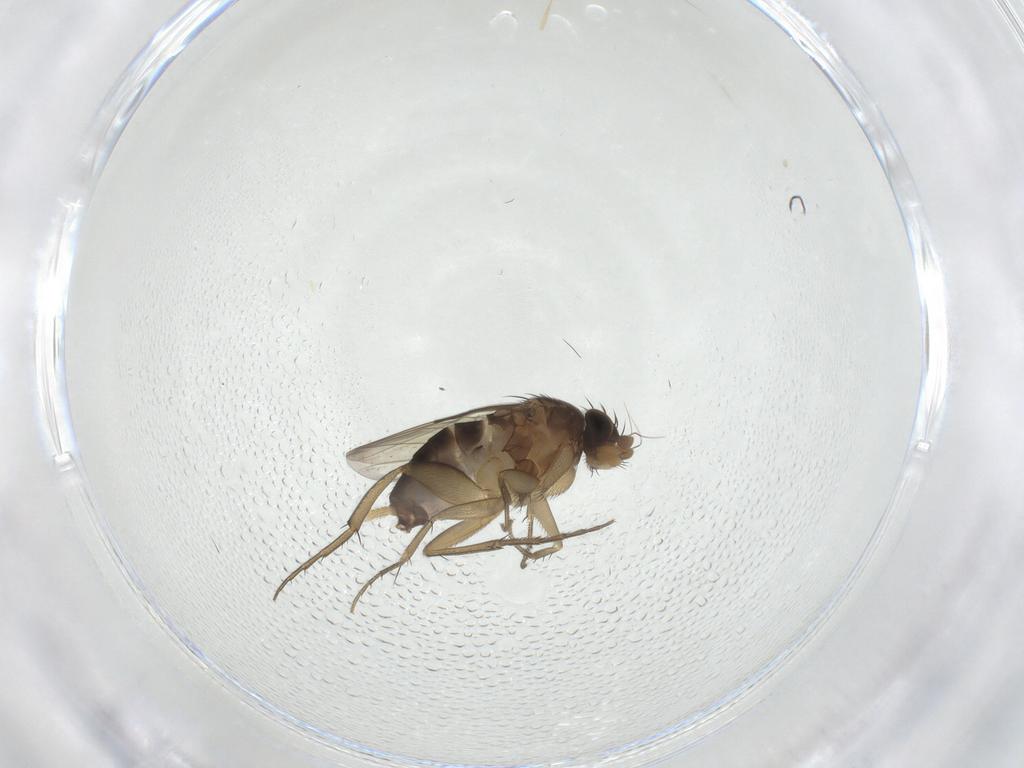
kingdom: Animalia
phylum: Arthropoda
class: Insecta
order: Diptera
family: Phoridae
